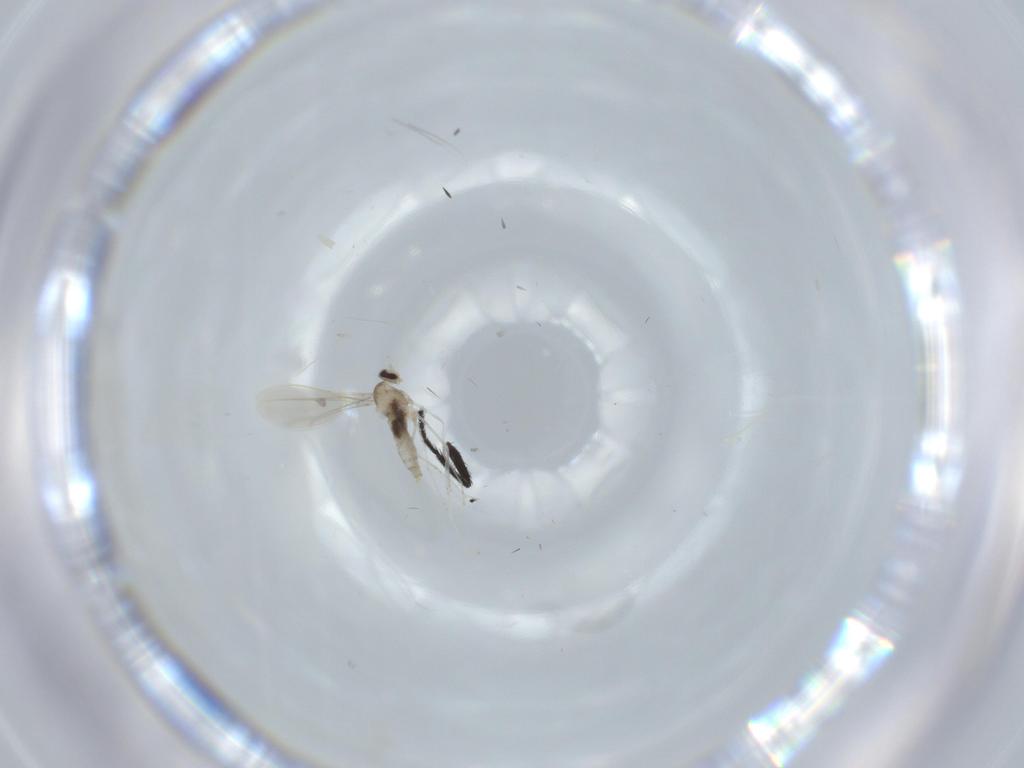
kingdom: Animalia
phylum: Arthropoda
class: Insecta
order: Diptera
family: Cecidomyiidae
